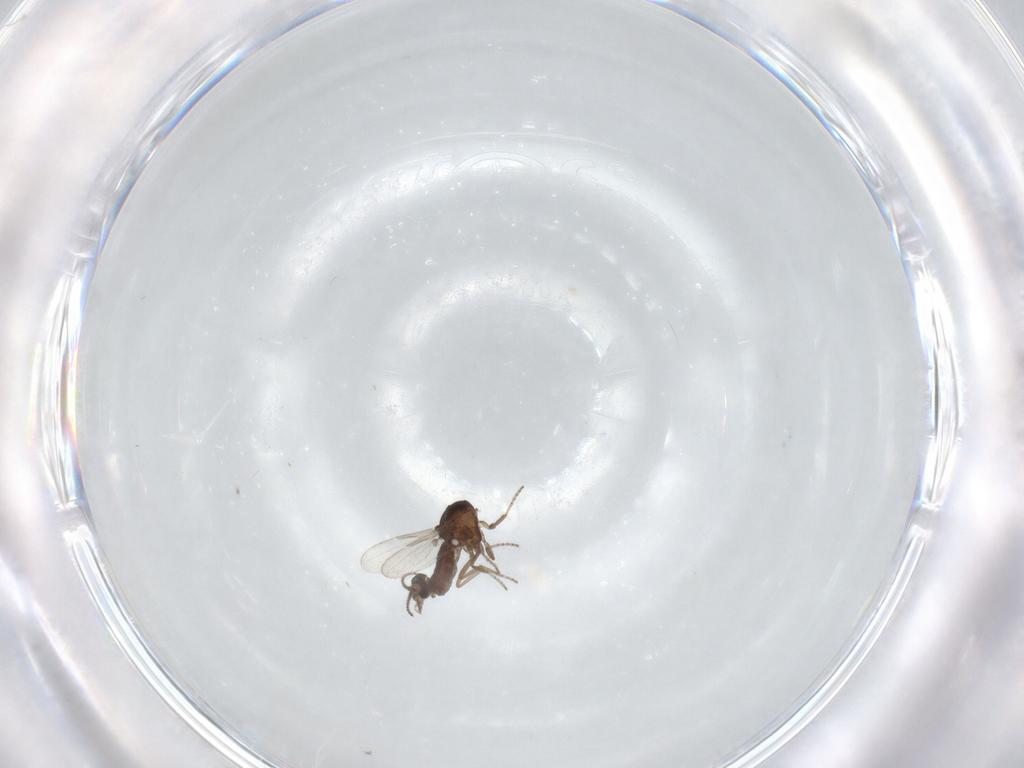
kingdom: Animalia
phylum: Arthropoda
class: Insecta
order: Diptera
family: Ceratopogonidae
